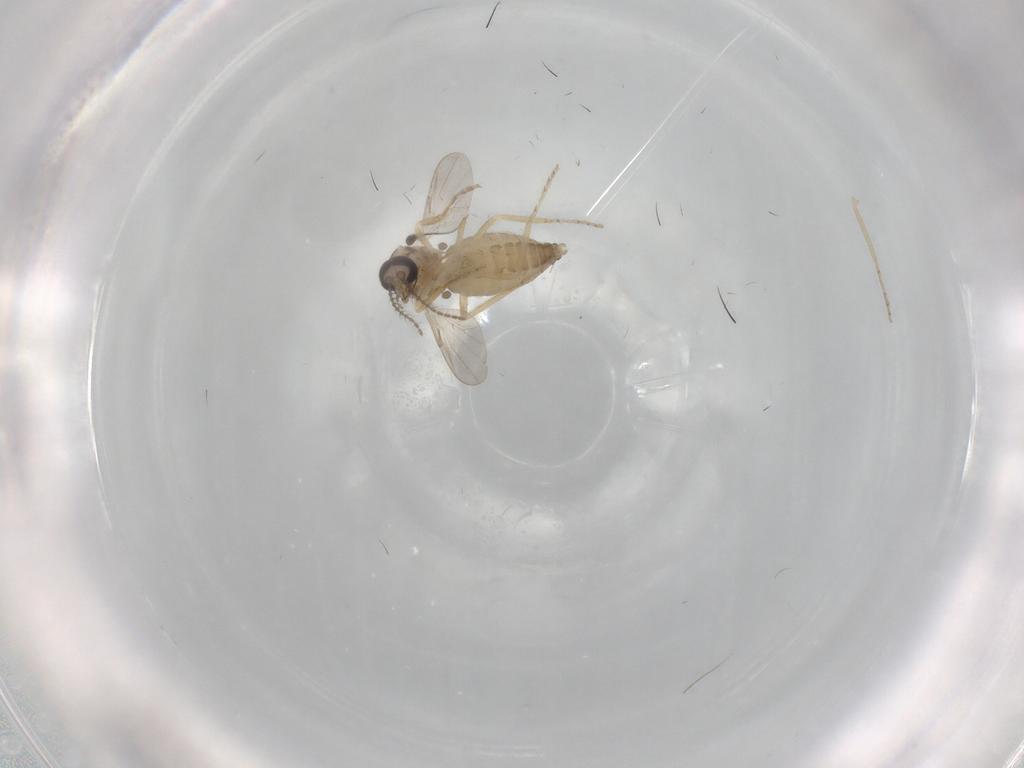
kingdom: Animalia
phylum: Arthropoda
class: Insecta
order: Diptera
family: Ceratopogonidae
